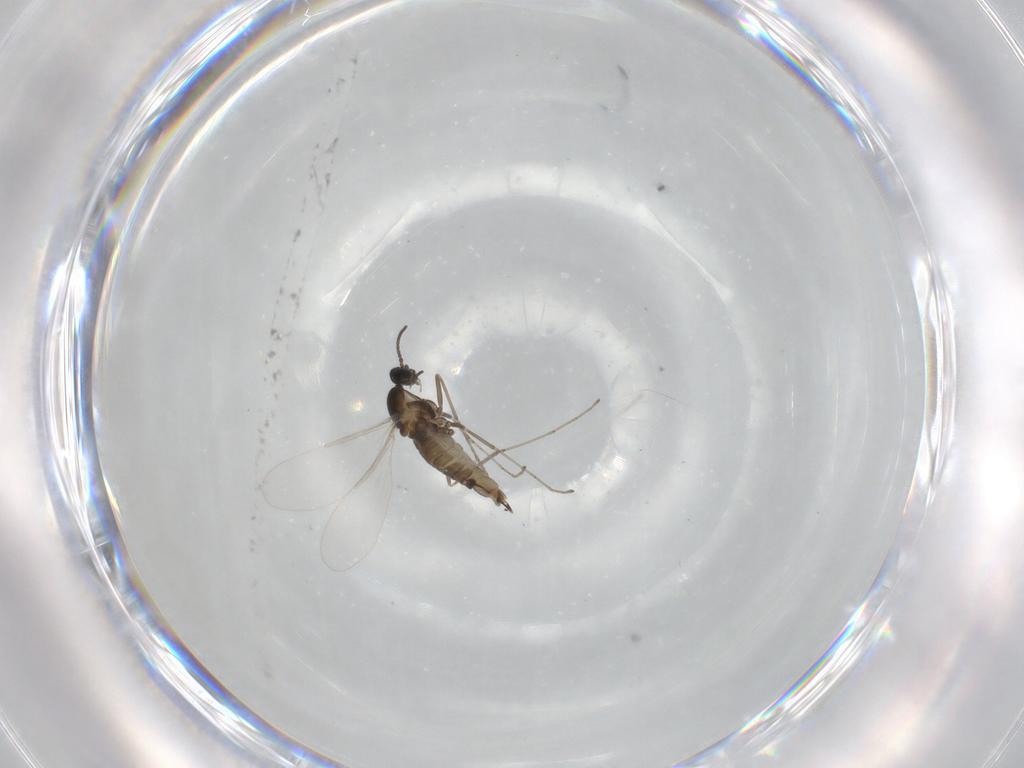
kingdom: Animalia
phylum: Arthropoda
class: Insecta
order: Diptera
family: Cecidomyiidae
